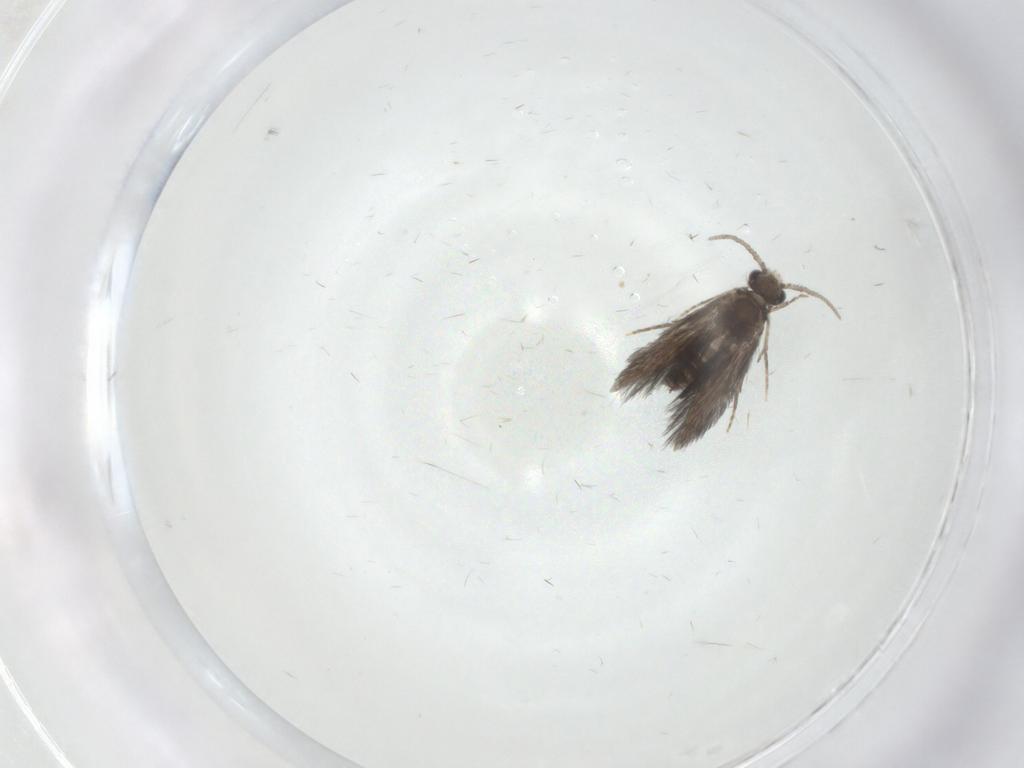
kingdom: Animalia
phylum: Arthropoda
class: Insecta
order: Trichoptera
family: Hydroptilidae
